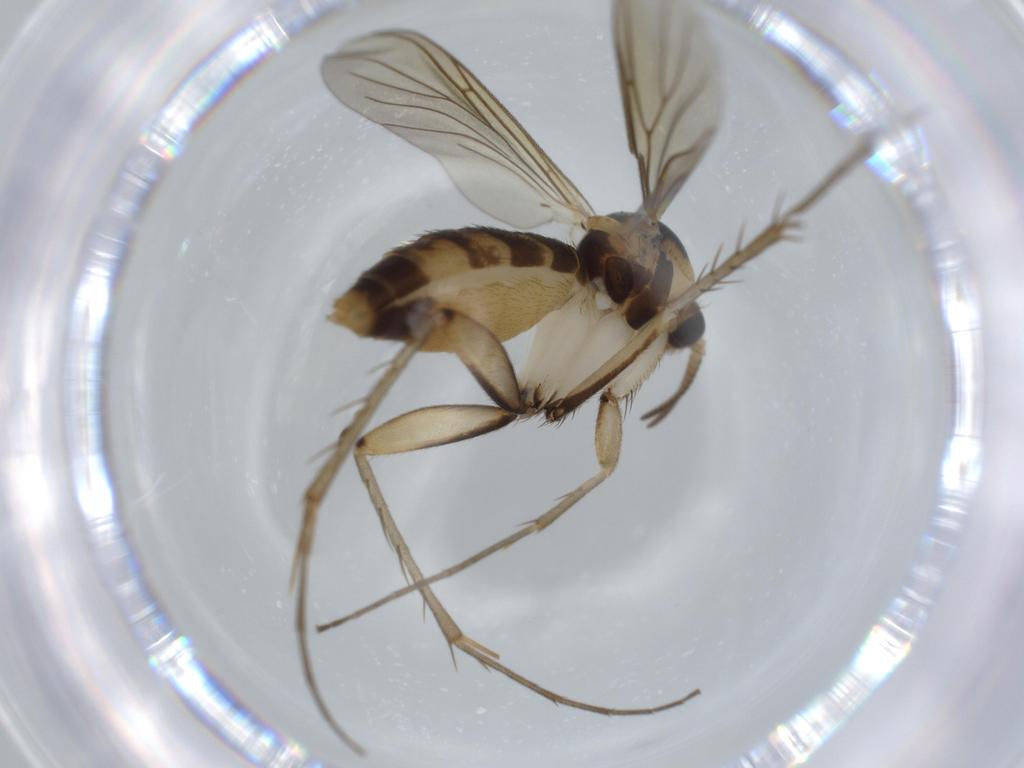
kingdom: Animalia
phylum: Arthropoda
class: Insecta
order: Diptera
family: Mycetophilidae
